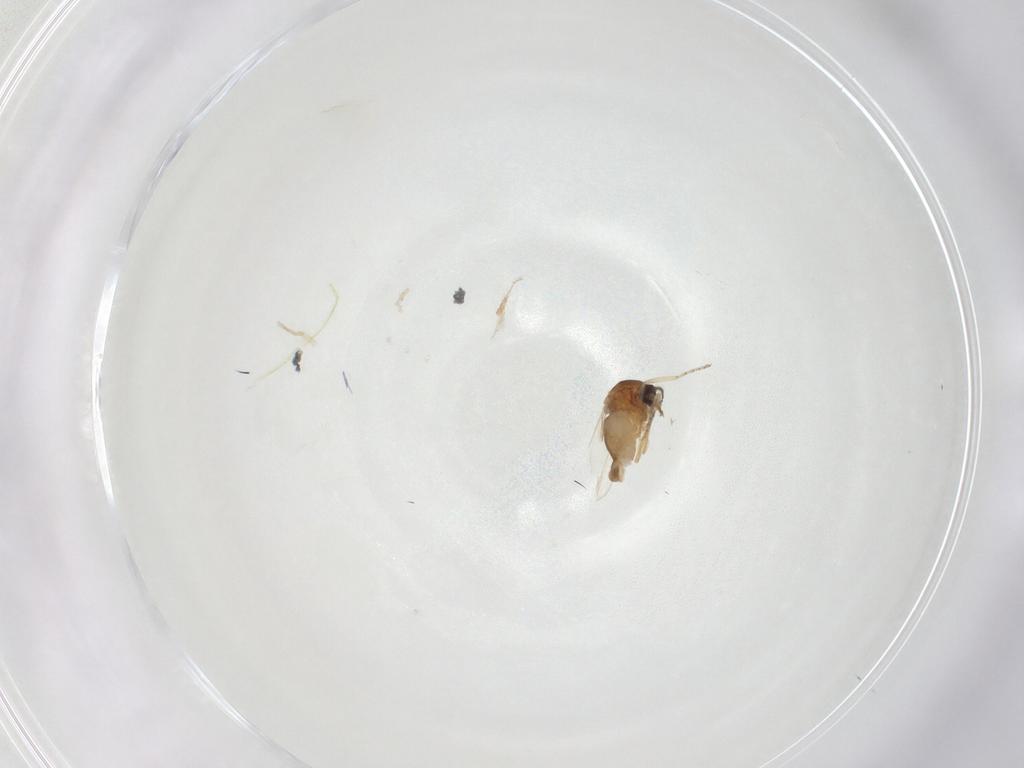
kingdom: Animalia
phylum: Arthropoda
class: Insecta
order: Diptera
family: Ceratopogonidae
